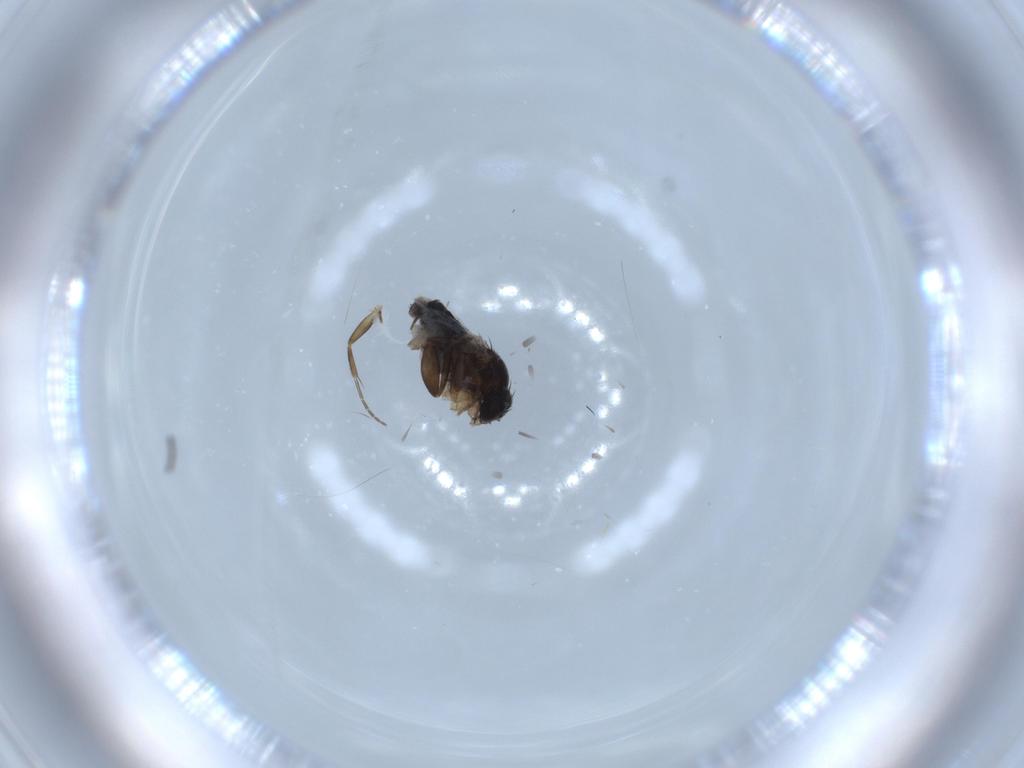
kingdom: Animalia
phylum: Arthropoda
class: Insecta
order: Diptera
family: Phoridae
